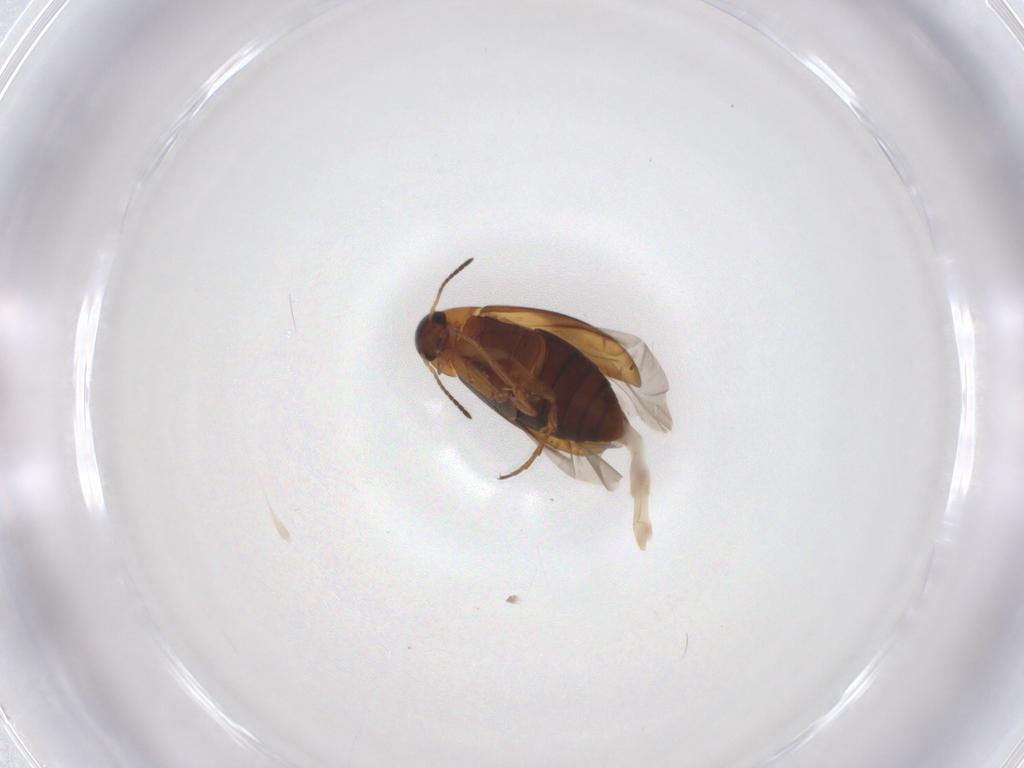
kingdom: Animalia
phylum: Arthropoda
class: Insecta
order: Coleoptera
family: Scraptiidae
